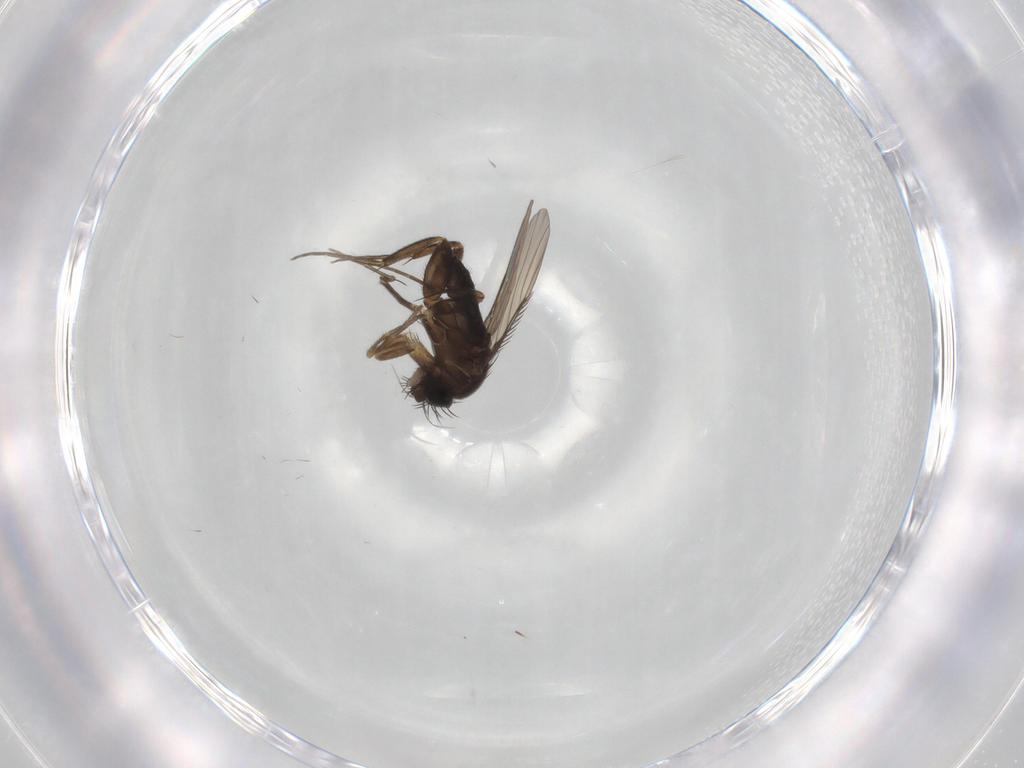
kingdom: Animalia
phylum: Arthropoda
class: Insecta
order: Diptera
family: Phoridae
